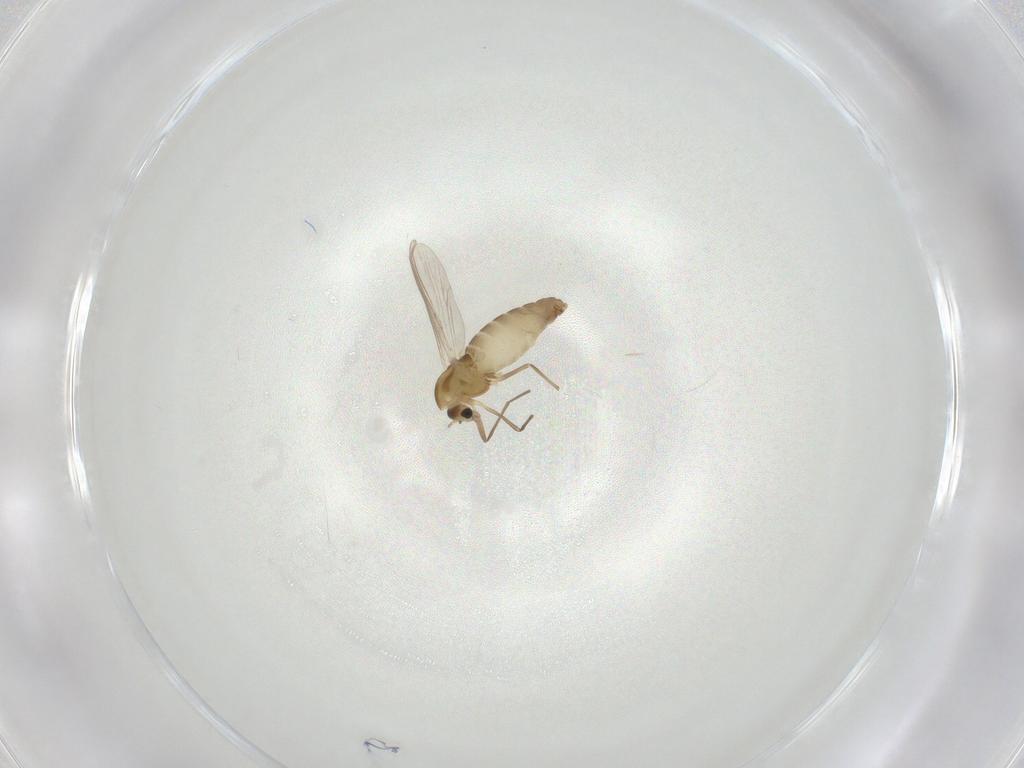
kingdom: Animalia
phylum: Arthropoda
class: Insecta
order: Diptera
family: Chironomidae
